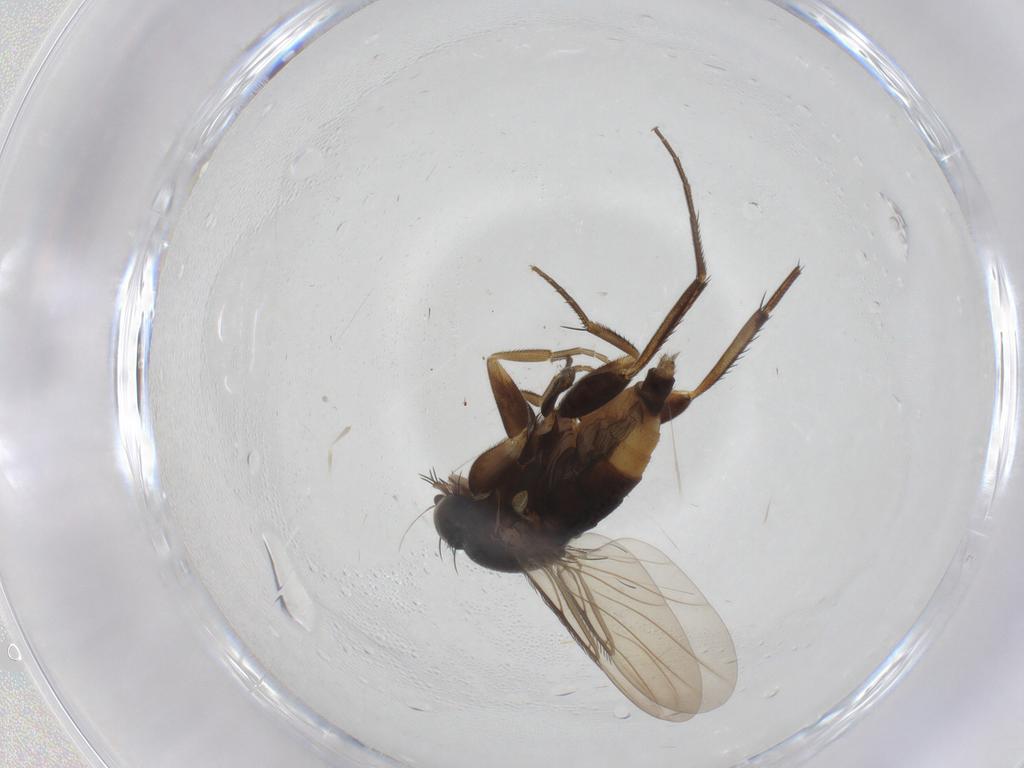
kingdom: Animalia
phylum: Arthropoda
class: Insecta
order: Diptera
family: Phoridae
